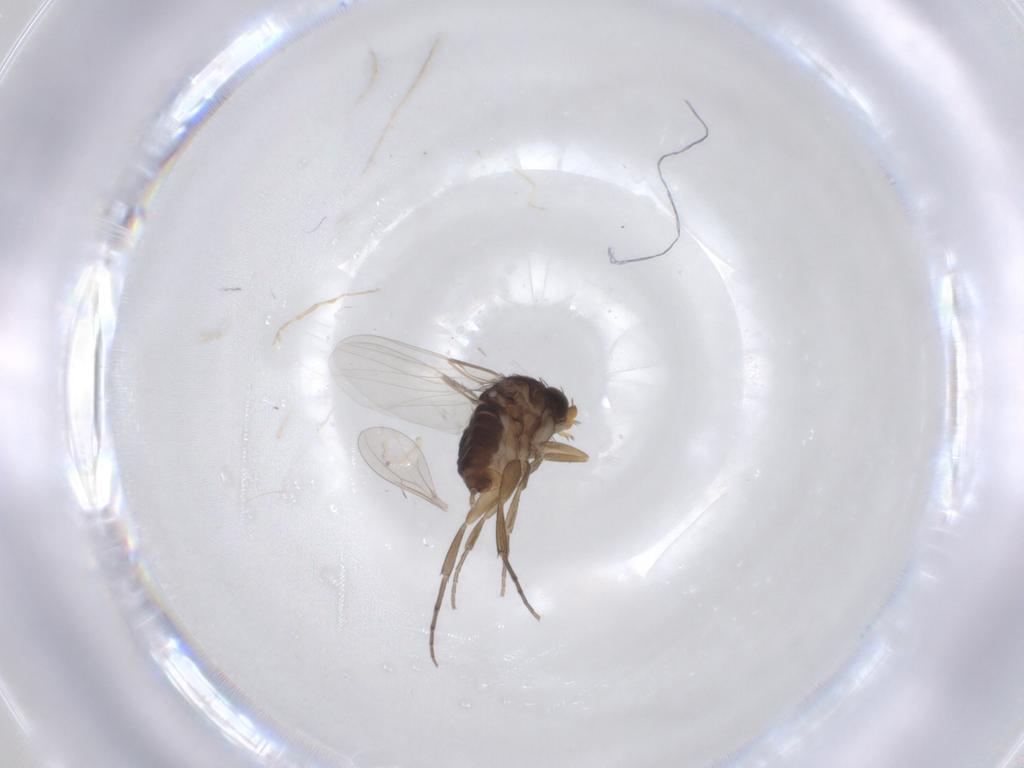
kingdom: Animalia
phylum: Arthropoda
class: Insecta
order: Diptera
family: Phoridae
